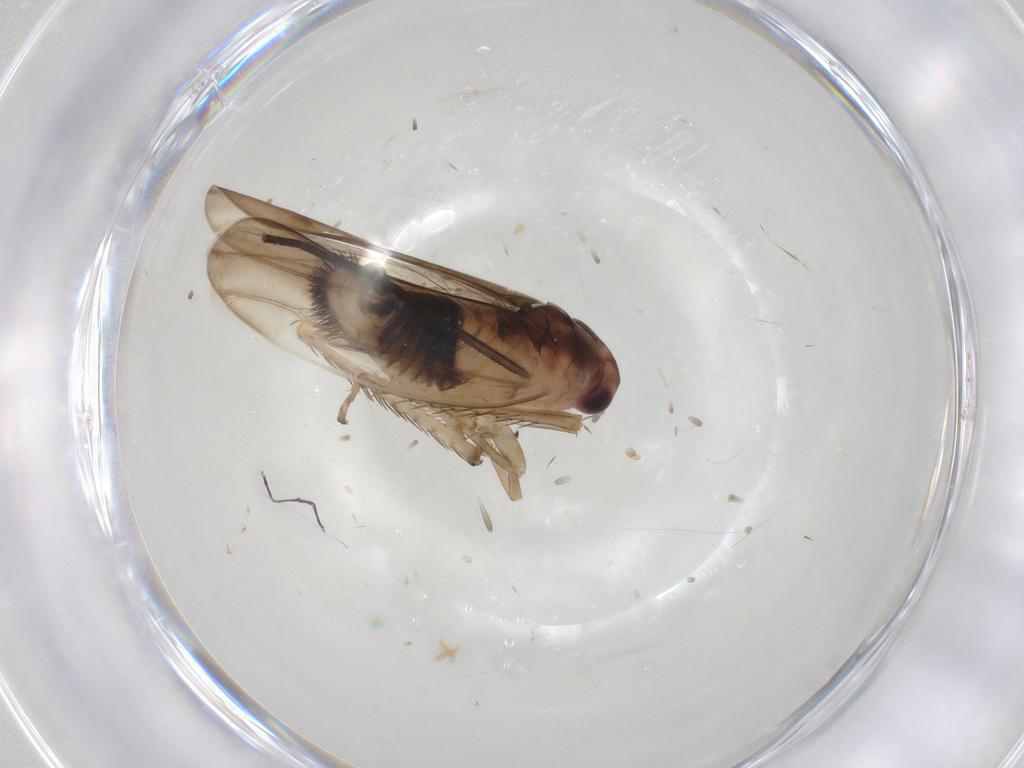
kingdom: Animalia
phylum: Arthropoda
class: Insecta
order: Hemiptera
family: Cicadellidae
